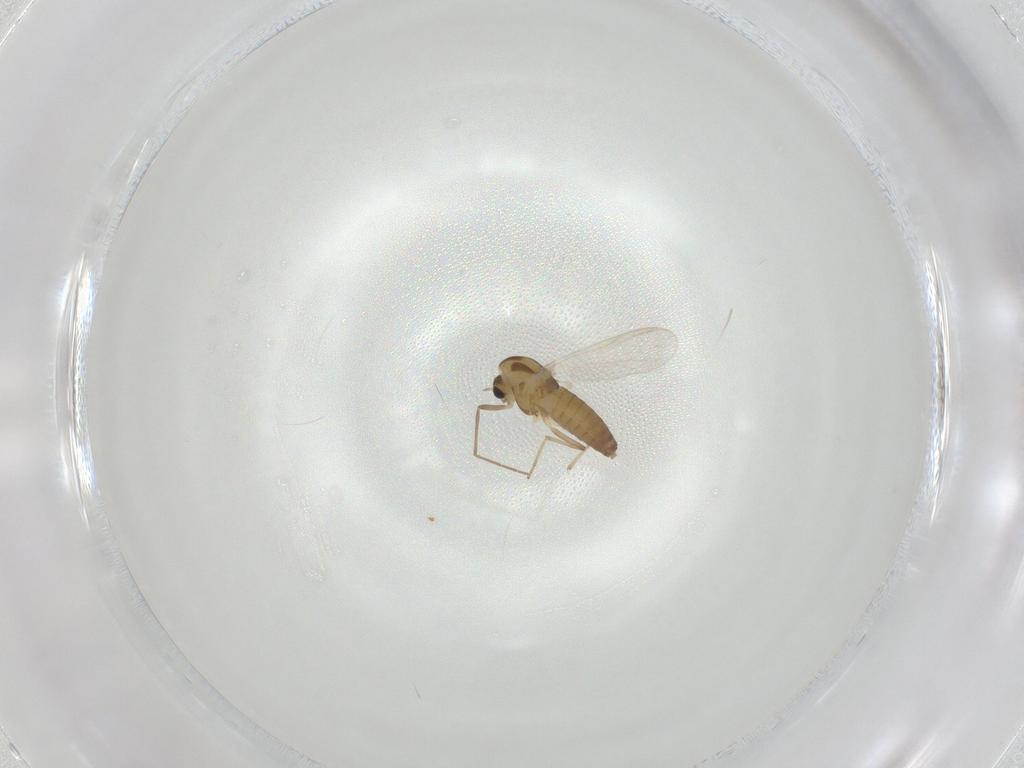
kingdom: Animalia
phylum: Arthropoda
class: Insecta
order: Diptera
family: Chironomidae
